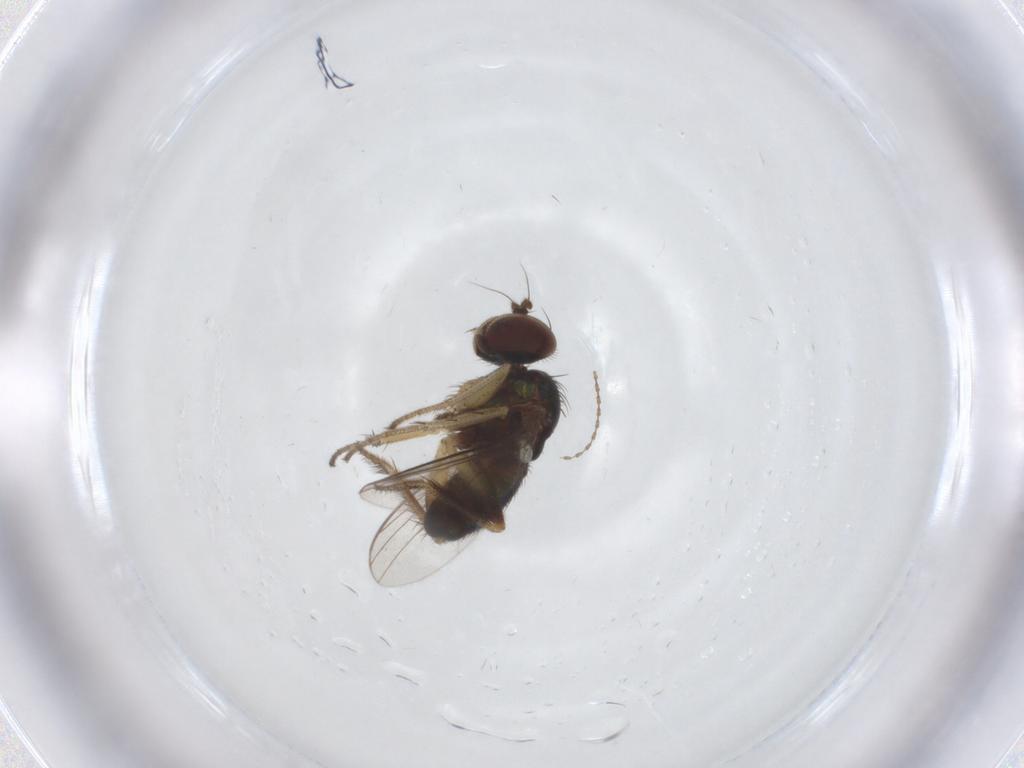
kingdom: Animalia
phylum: Arthropoda
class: Insecta
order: Diptera
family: Dolichopodidae
